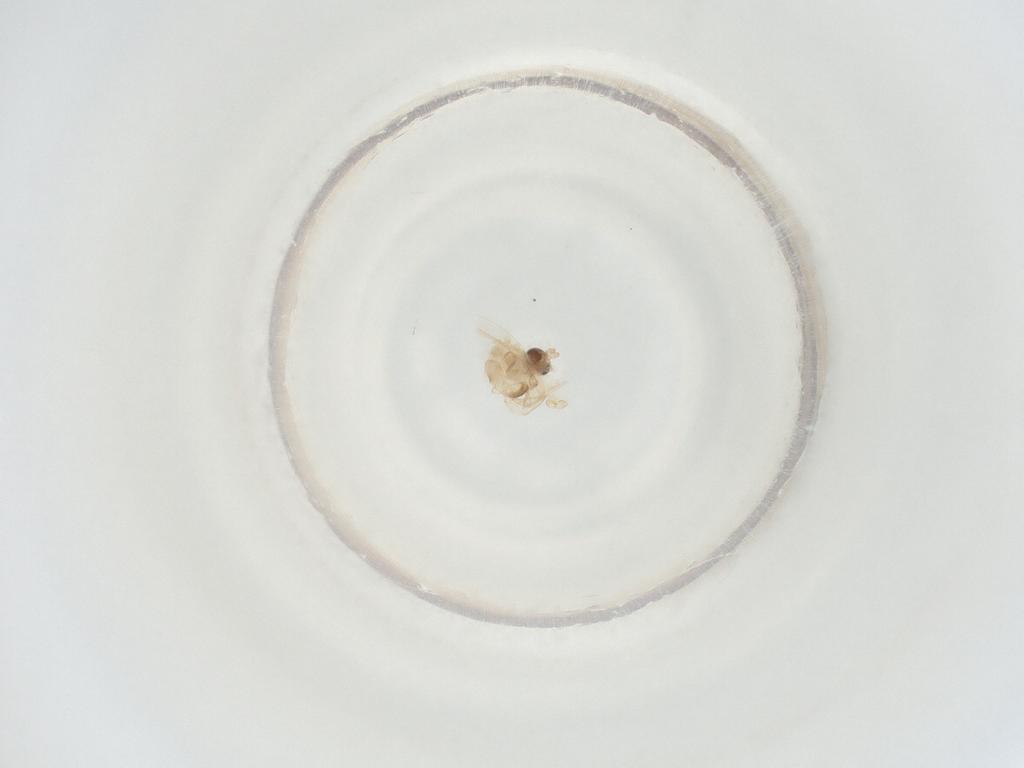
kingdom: Animalia
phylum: Arthropoda
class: Insecta
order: Diptera
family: Cecidomyiidae
